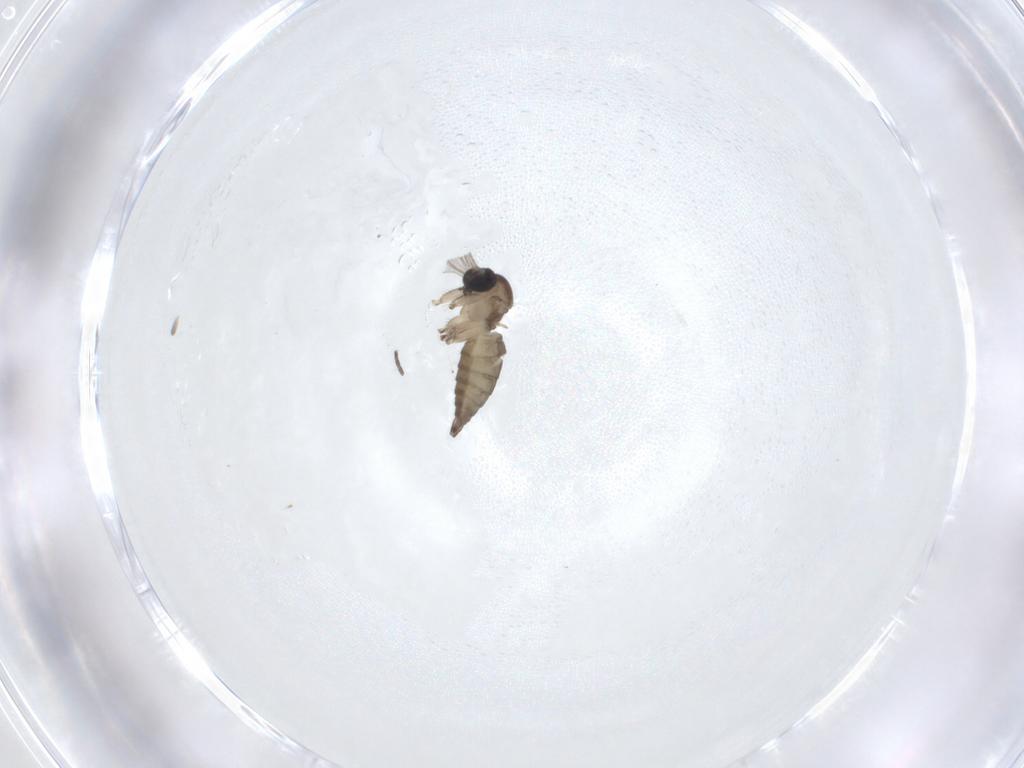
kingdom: Animalia
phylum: Arthropoda
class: Insecta
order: Diptera
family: Sciaridae
